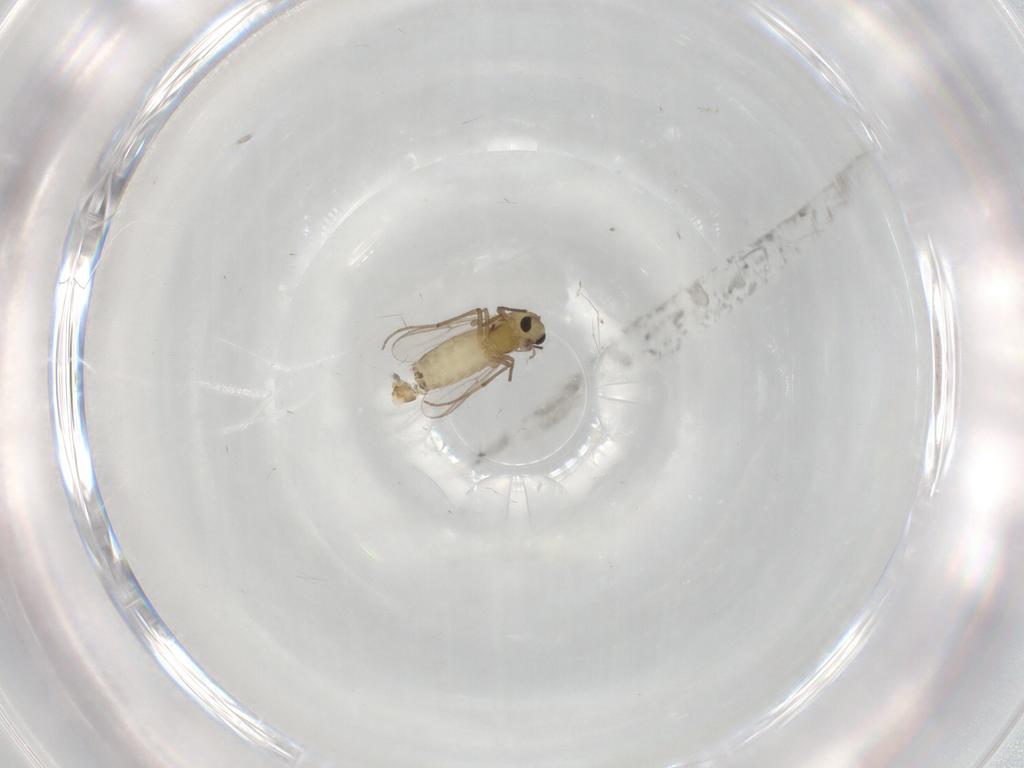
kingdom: Animalia
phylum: Arthropoda
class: Insecta
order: Diptera
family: Chironomidae
